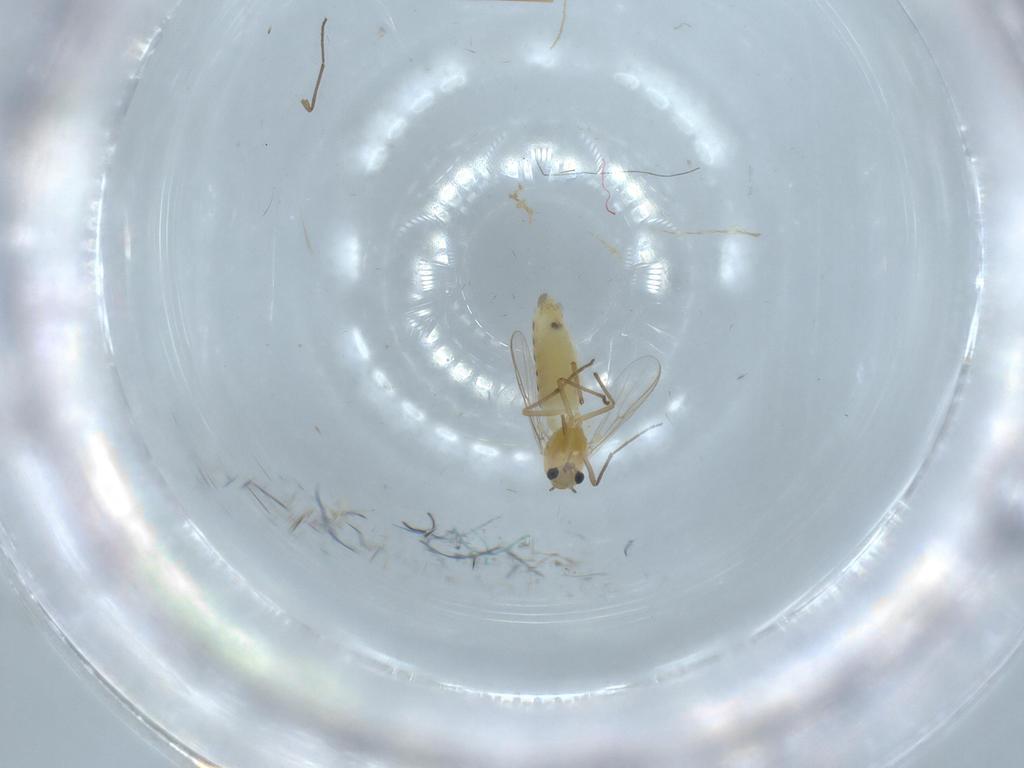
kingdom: Animalia
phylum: Arthropoda
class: Insecta
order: Diptera
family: Chironomidae
